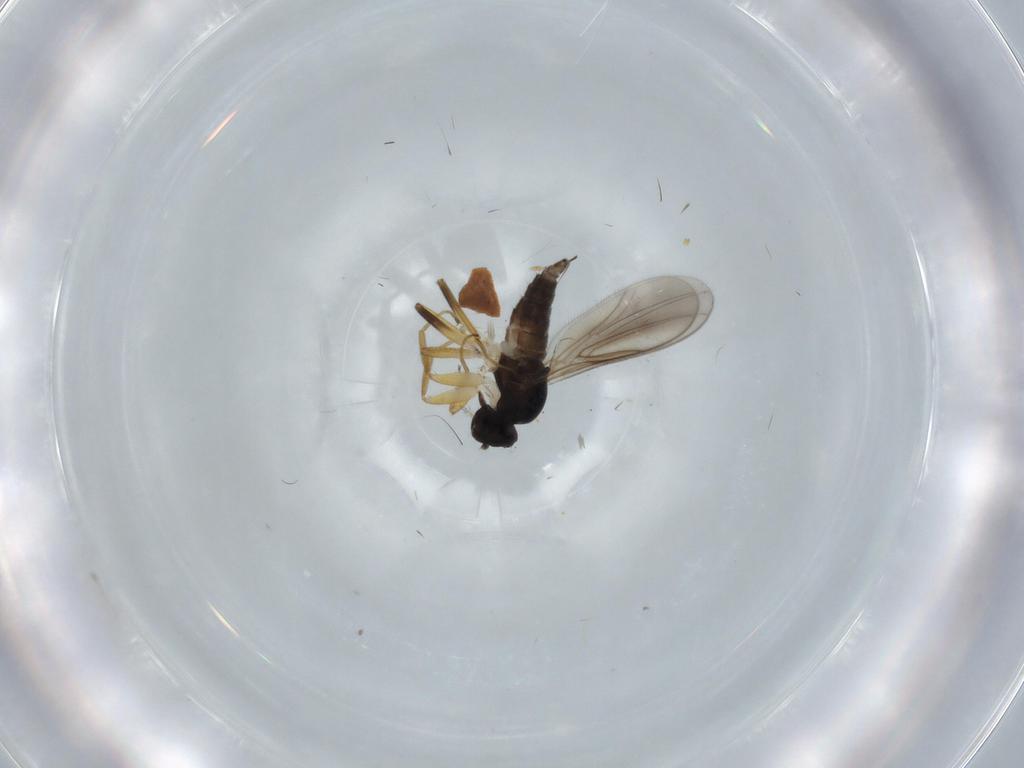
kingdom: Animalia
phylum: Arthropoda
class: Insecta
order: Diptera
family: Hybotidae
